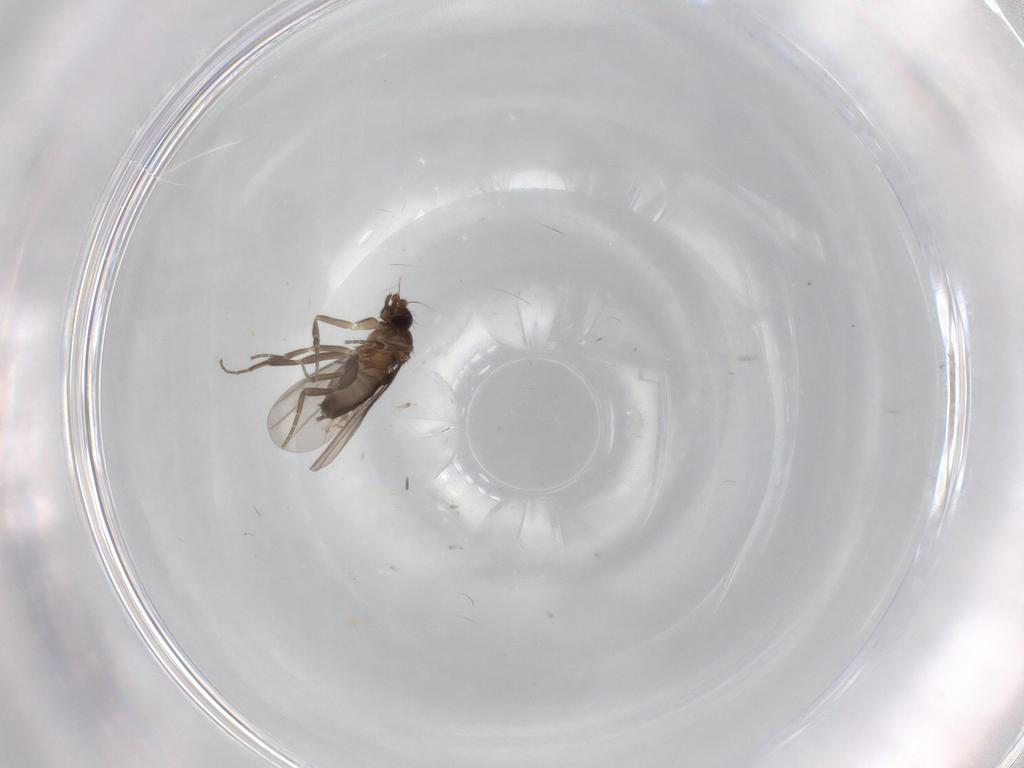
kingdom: Animalia
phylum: Arthropoda
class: Insecta
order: Diptera
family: Phoridae
